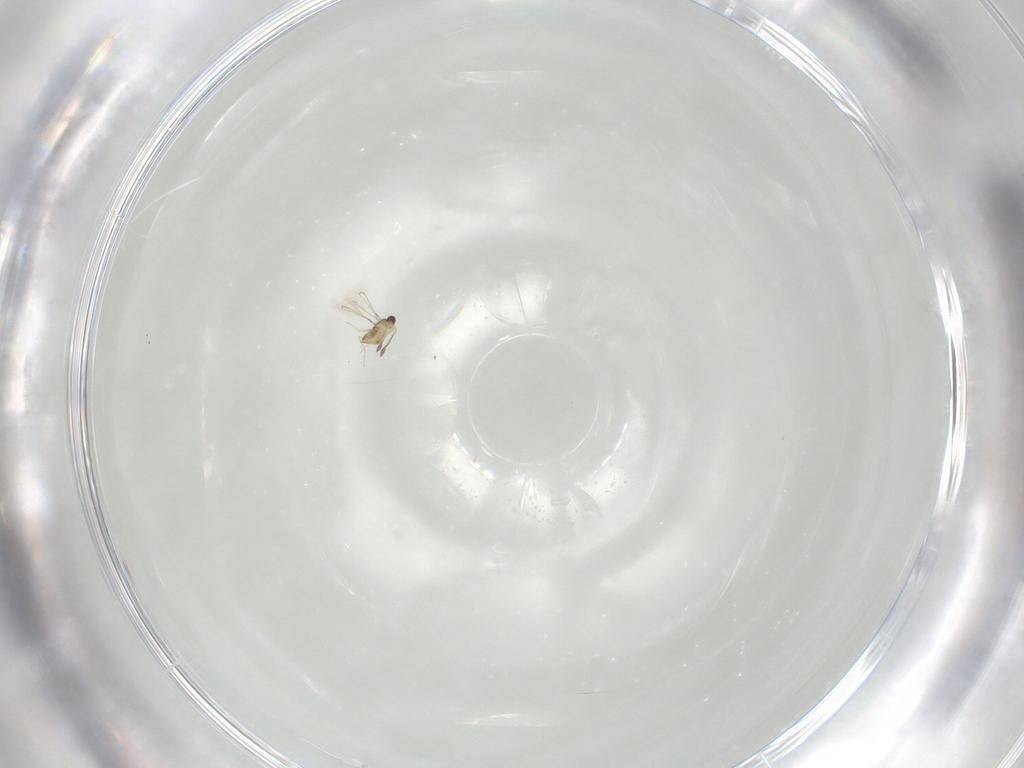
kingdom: Animalia
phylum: Arthropoda
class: Insecta
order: Hymenoptera
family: Mymaridae
